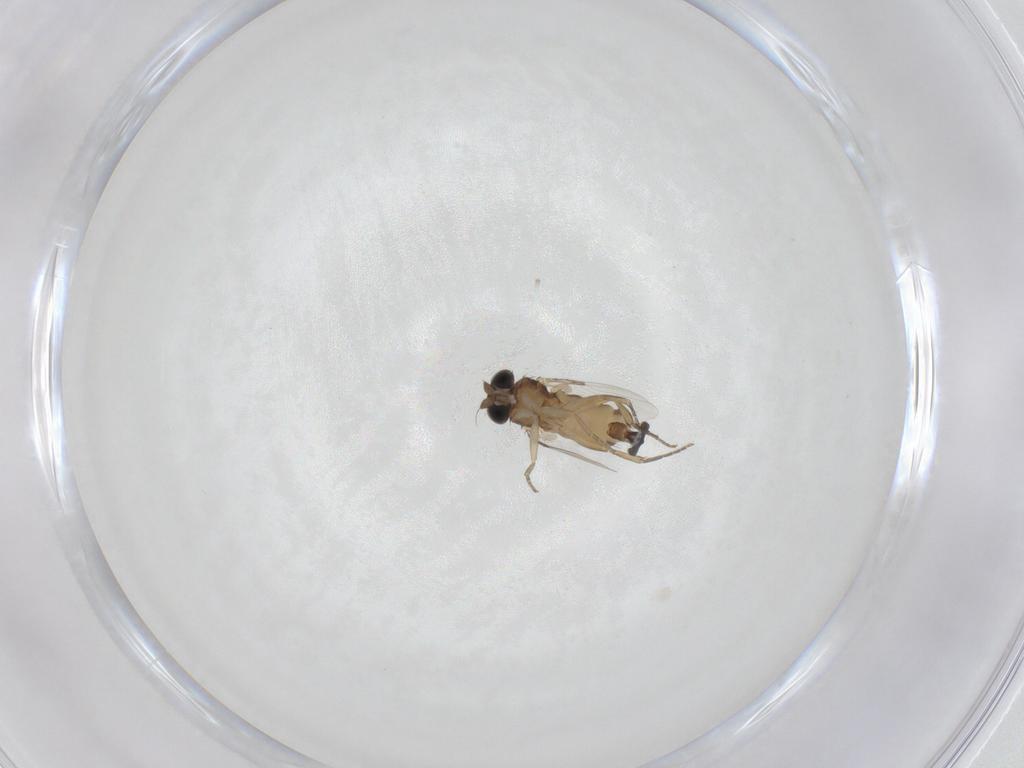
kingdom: Animalia
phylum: Arthropoda
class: Insecta
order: Diptera
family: Phoridae
